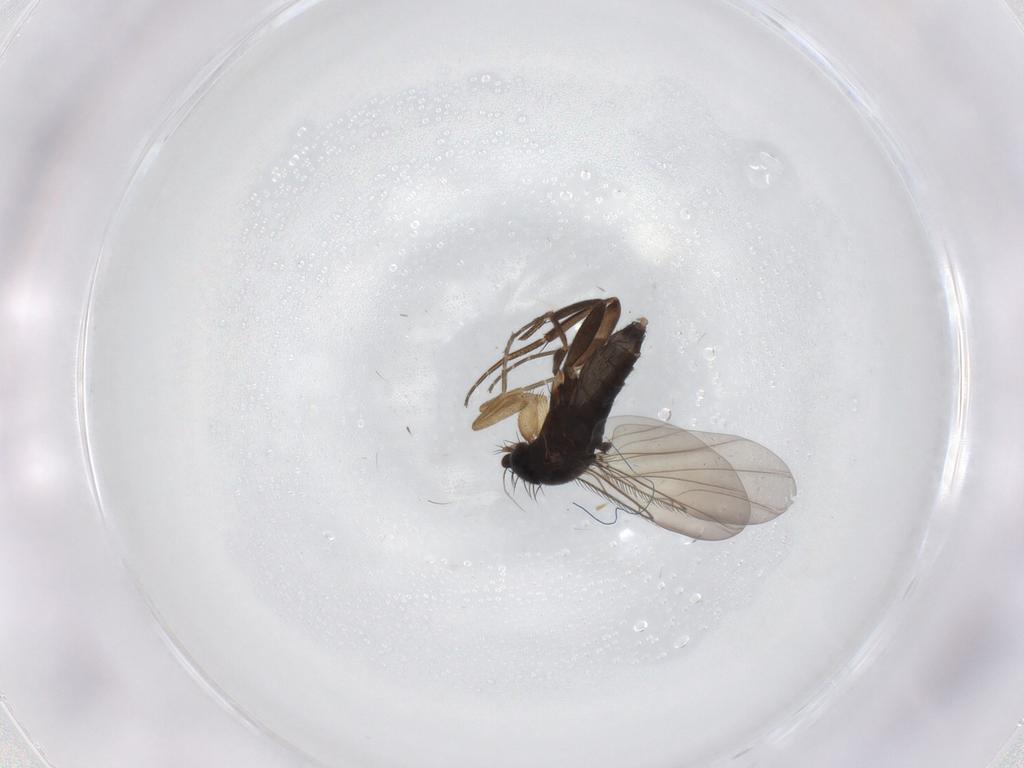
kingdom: Animalia
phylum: Arthropoda
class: Insecta
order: Diptera
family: Phoridae
